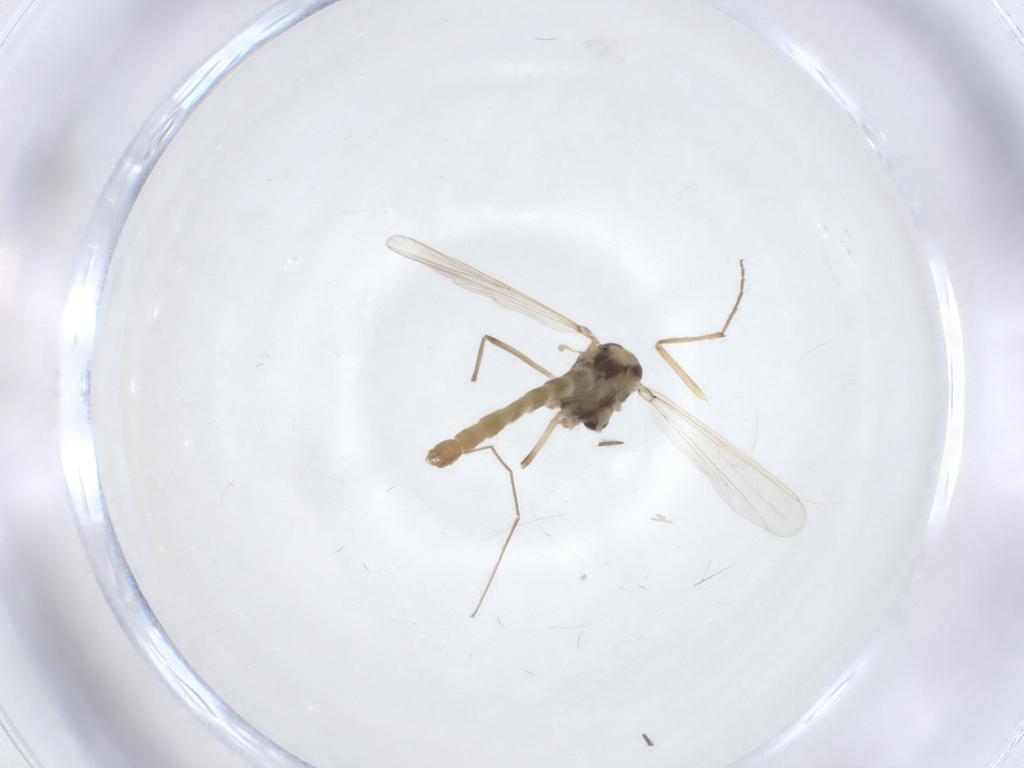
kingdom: Animalia
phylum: Arthropoda
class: Insecta
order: Diptera
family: Chironomidae
